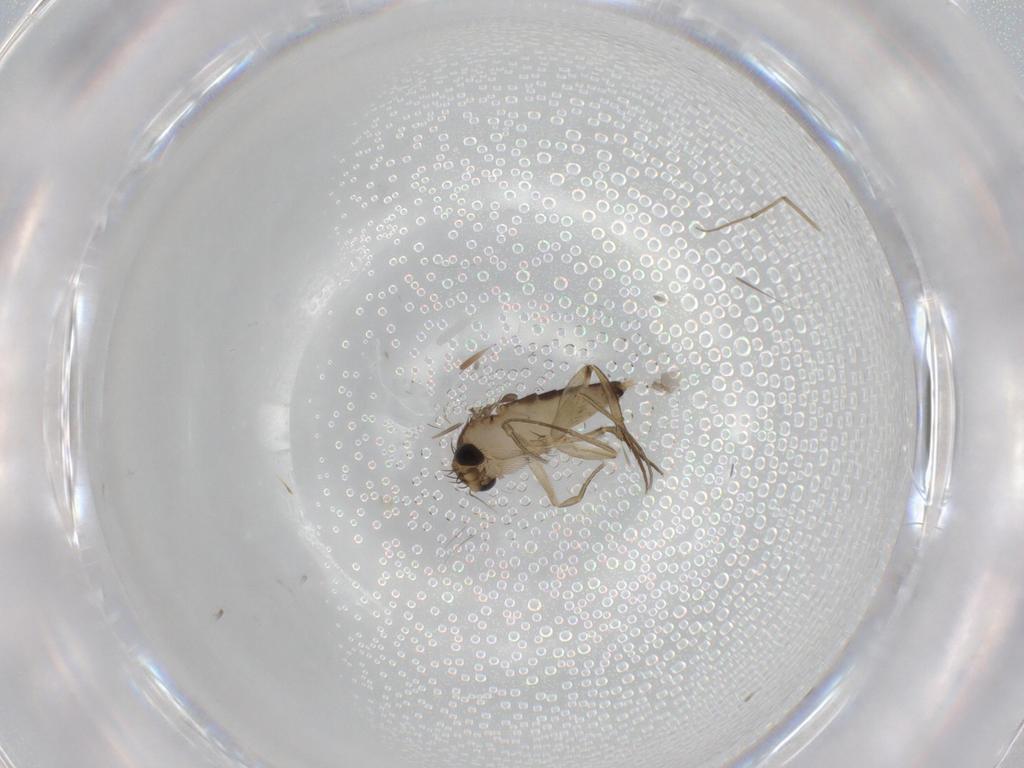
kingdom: Animalia
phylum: Arthropoda
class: Insecta
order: Diptera
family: Phoridae
